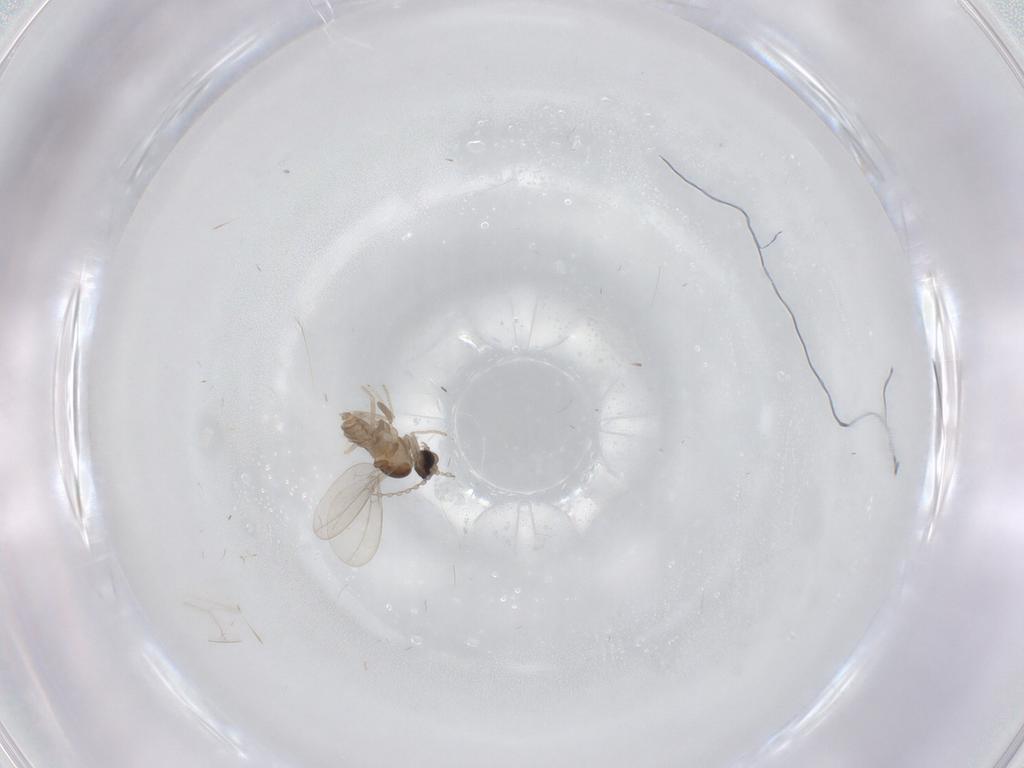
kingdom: Animalia
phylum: Arthropoda
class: Insecta
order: Diptera
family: Cecidomyiidae
